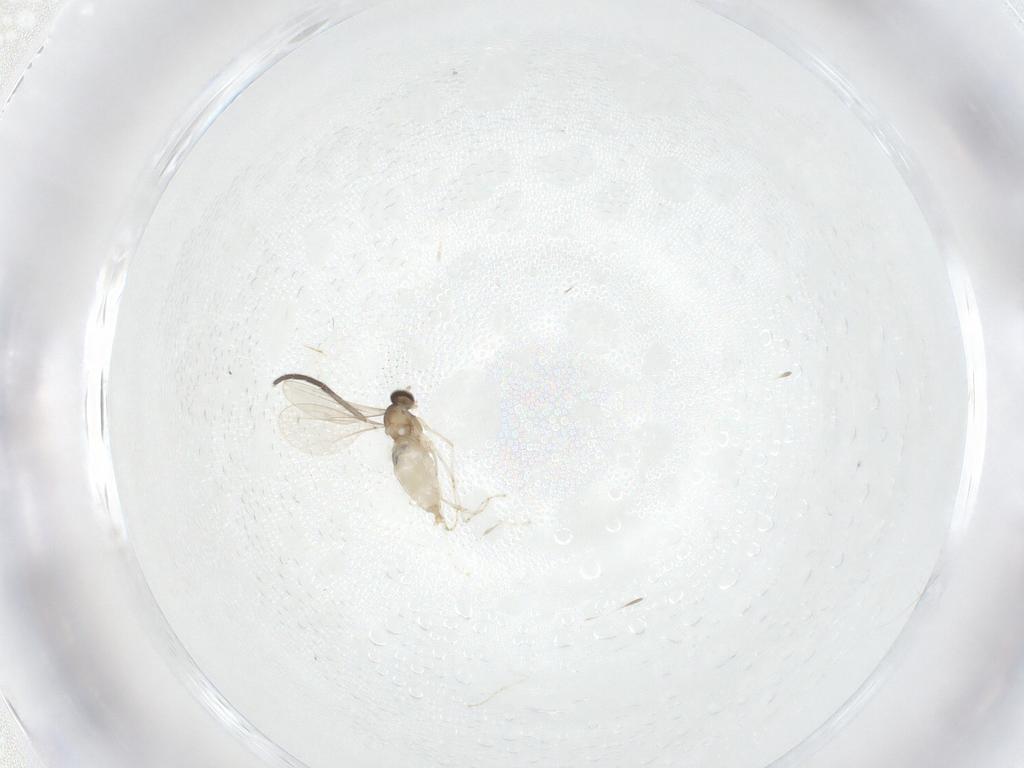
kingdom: Animalia
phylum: Arthropoda
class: Insecta
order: Diptera
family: Sciaridae
